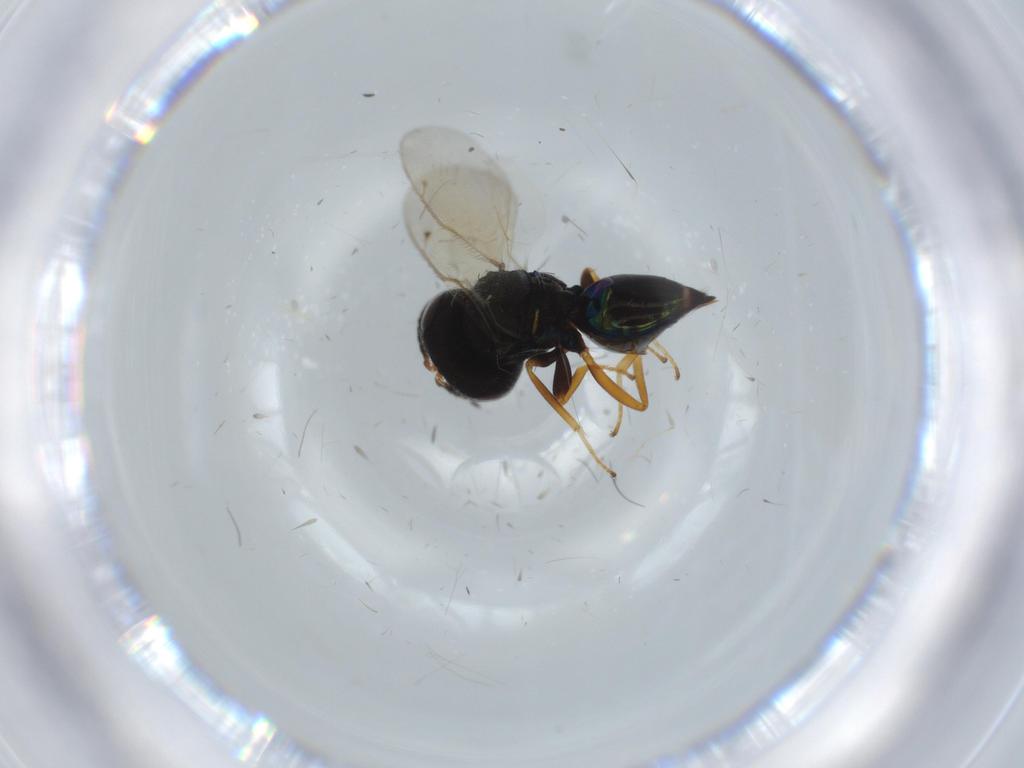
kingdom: Animalia
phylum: Arthropoda
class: Insecta
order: Hymenoptera
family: Pteromalidae
